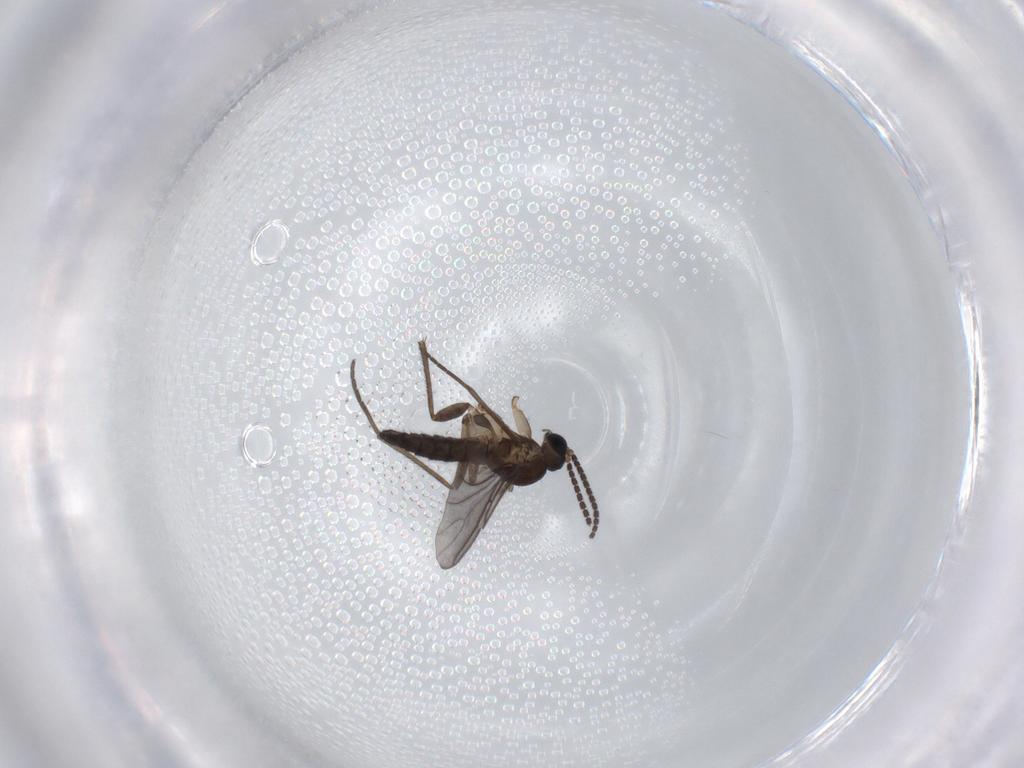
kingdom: Animalia
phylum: Arthropoda
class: Insecta
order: Diptera
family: Sciaridae
